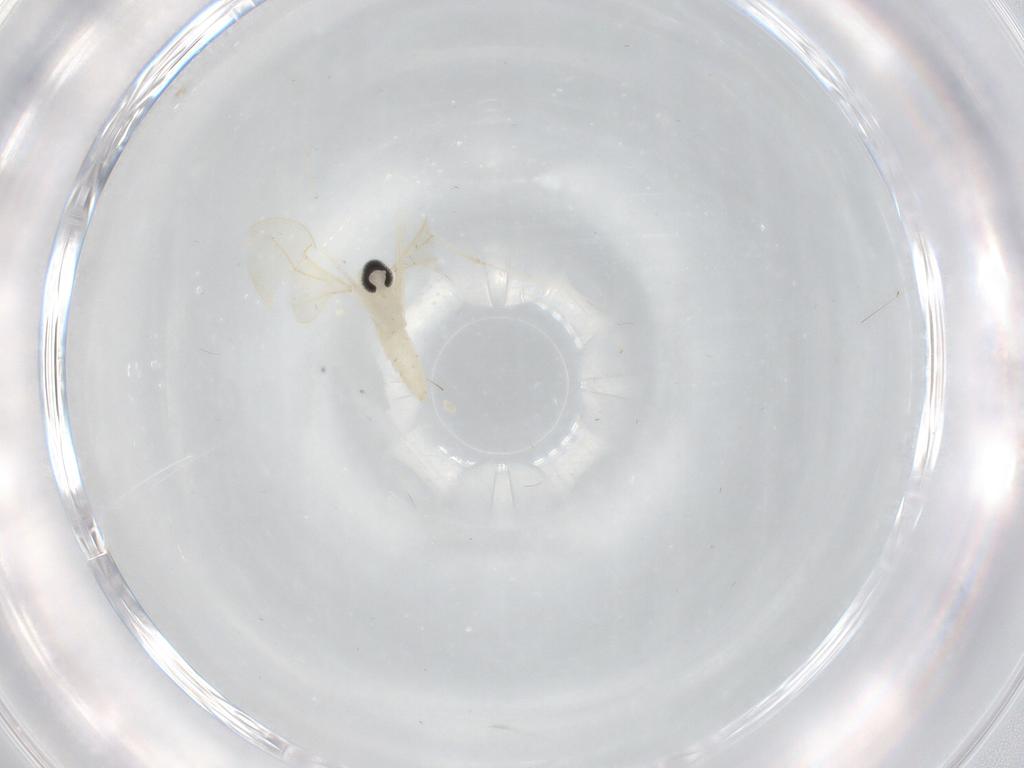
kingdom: Animalia
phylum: Arthropoda
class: Insecta
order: Diptera
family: Cecidomyiidae
